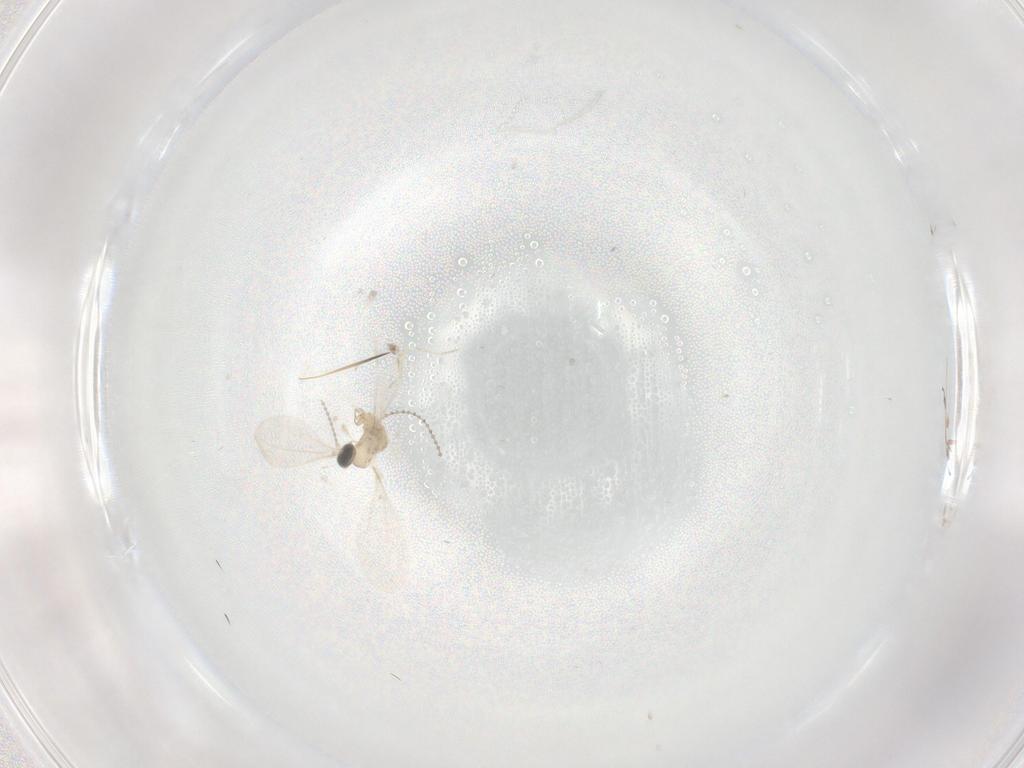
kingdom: Animalia
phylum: Arthropoda
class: Insecta
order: Diptera
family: Cecidomyiidae
